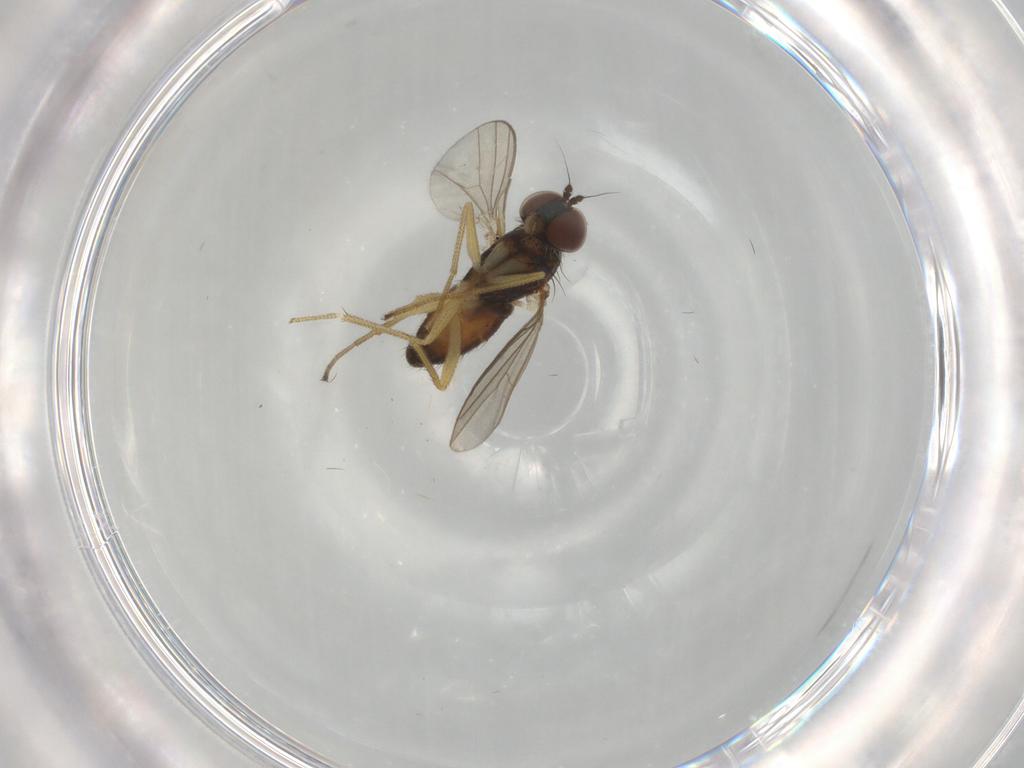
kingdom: Animalia
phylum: Arthropoda
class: Insecta
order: Diptera
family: Dolichopodidae
